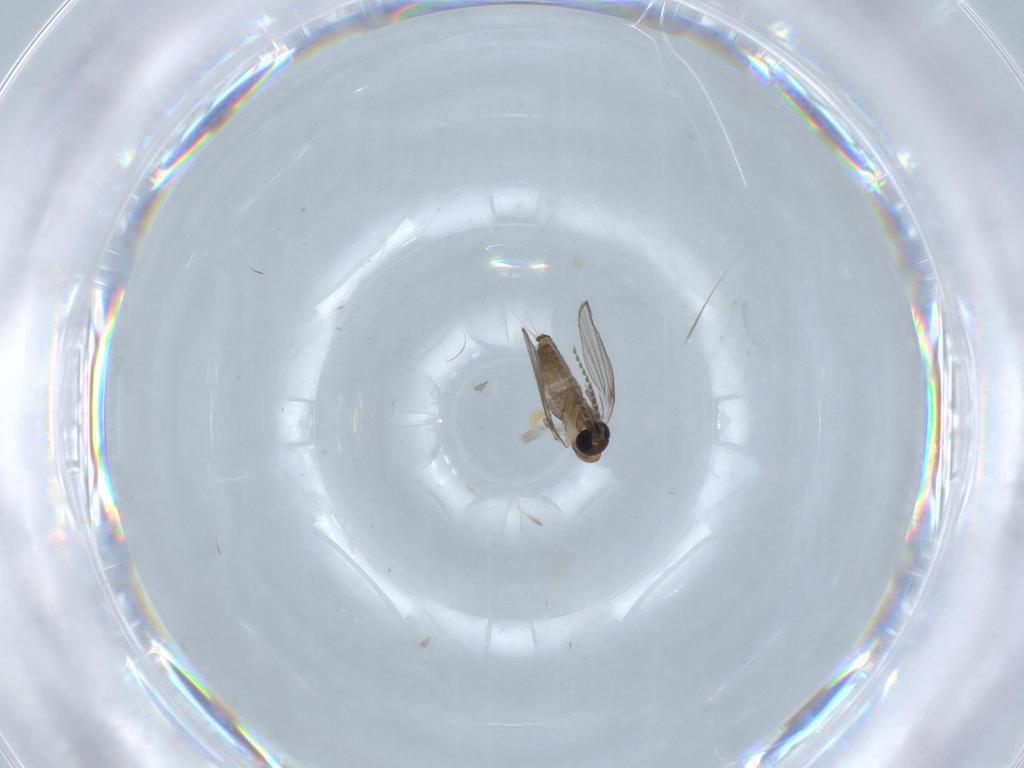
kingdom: Animalia
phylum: Arthropoda
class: Insecta
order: Diptera
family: Psychodidae
